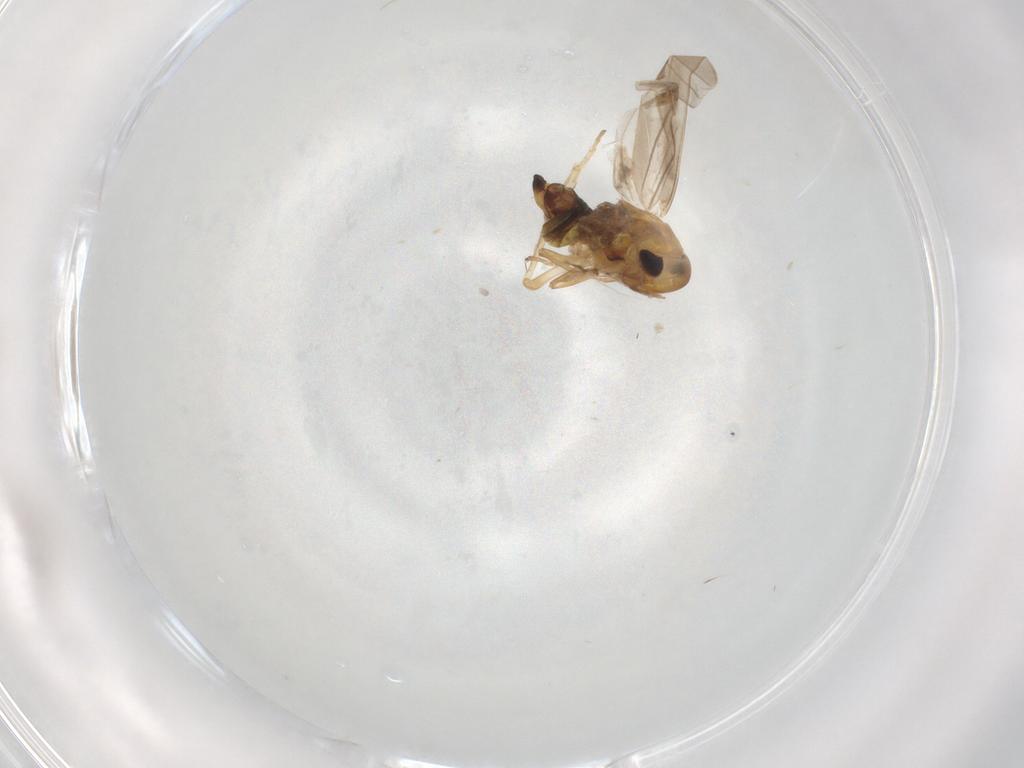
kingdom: Animalia
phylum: Arthropoda
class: Insecta
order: Hemiptera
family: Cicadellidae
